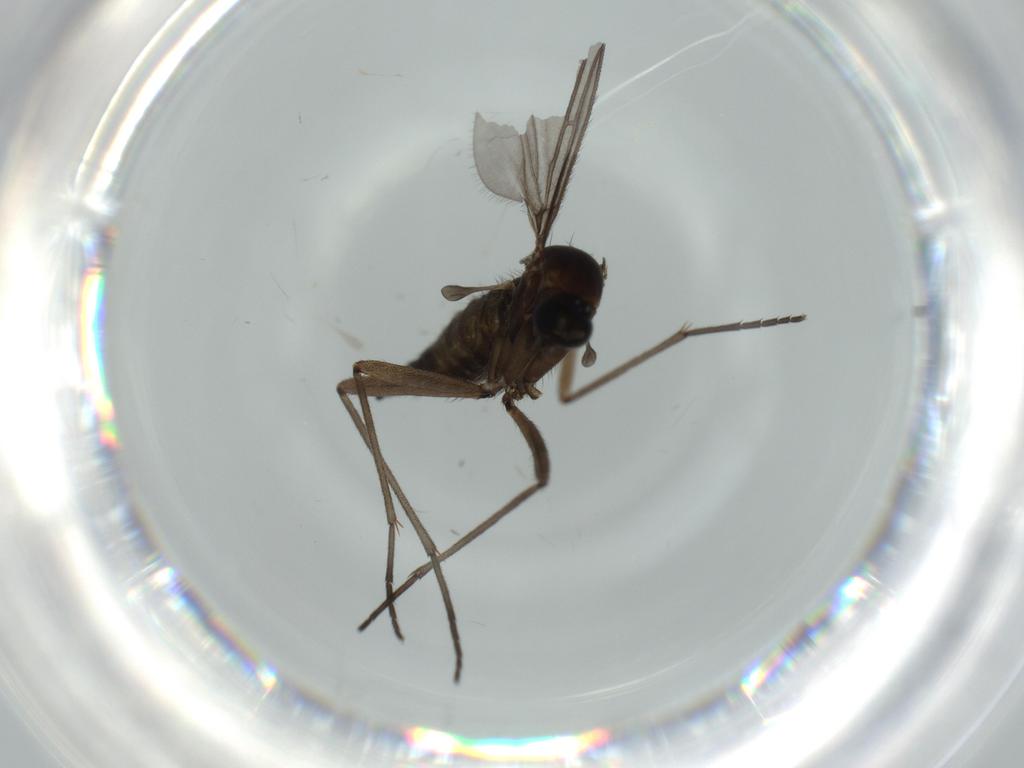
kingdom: Animalia
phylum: Arthropoda
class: Insecta
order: Diptera
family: Sciaridae
